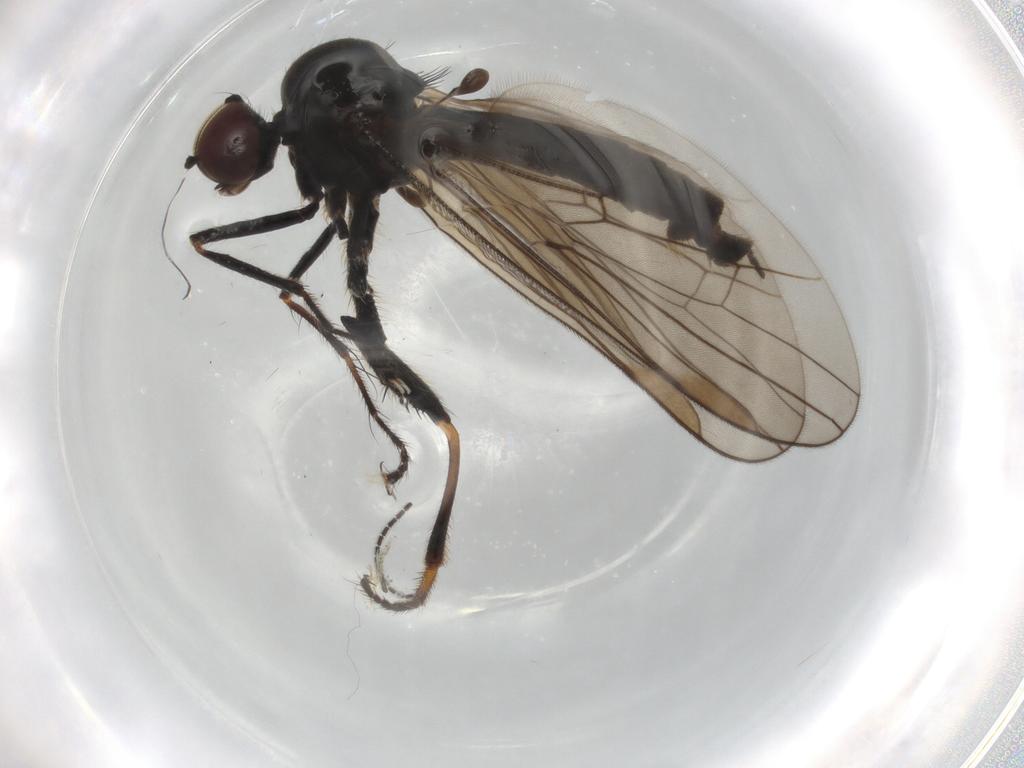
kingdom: Animalia
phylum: Arthropoda
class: Insecta
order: Diptera
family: Hybotidae
